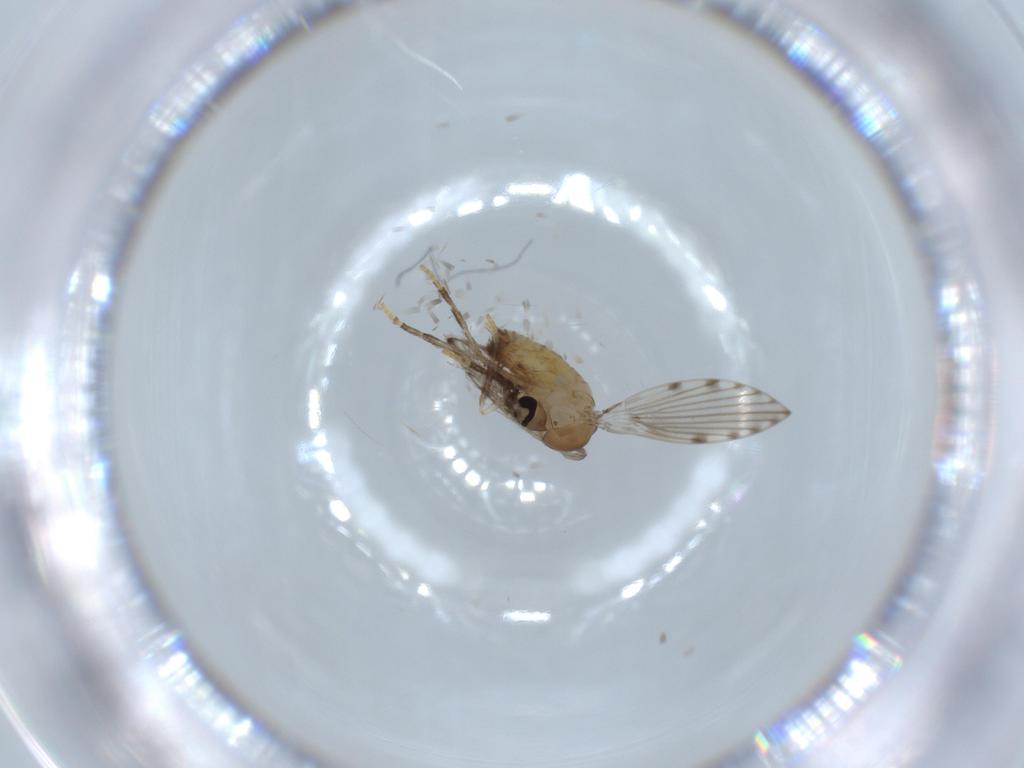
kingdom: Animalia
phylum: Arthropoda
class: Insecta
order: Diptera
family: Psychodidae
